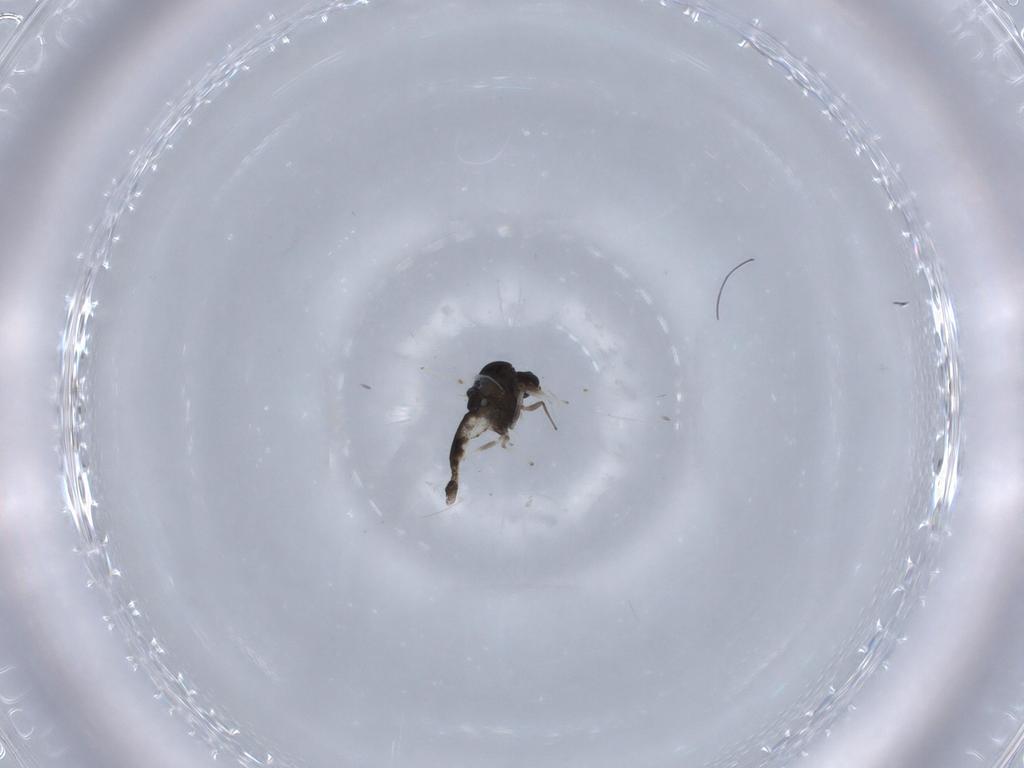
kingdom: Animalia
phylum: Arthropoda
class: Insecta
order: Diptera
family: Chironomidae
